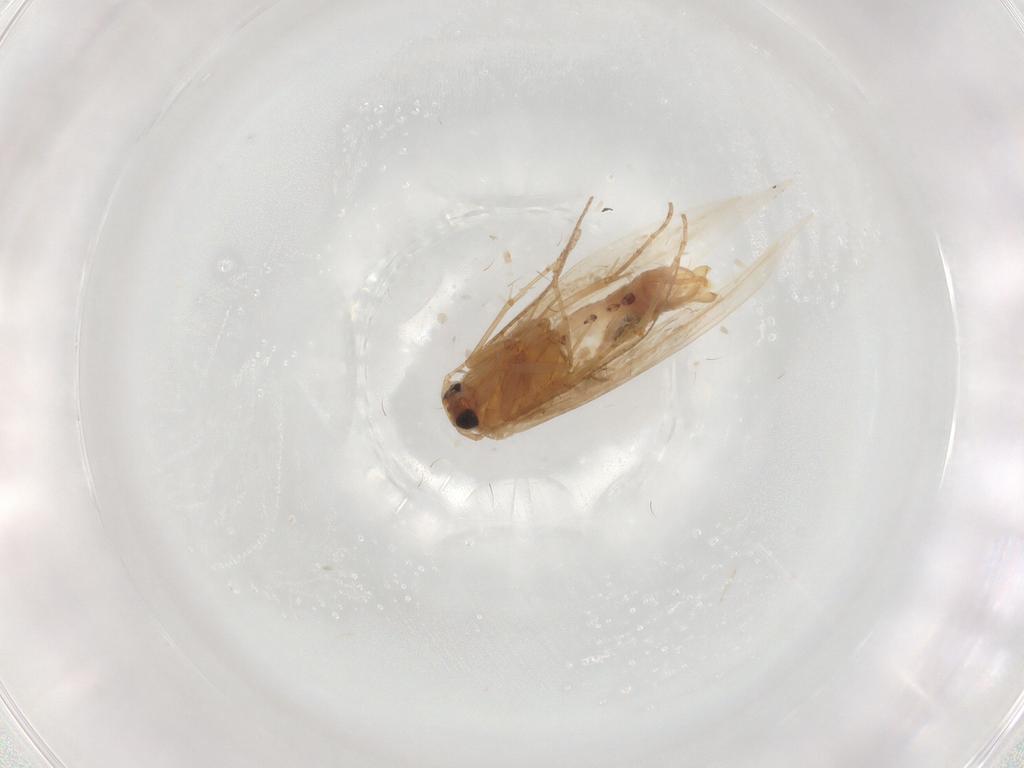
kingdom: Animalia
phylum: Arthropoda
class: Insecta
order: Lepidoptera
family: Bucculatricidae
